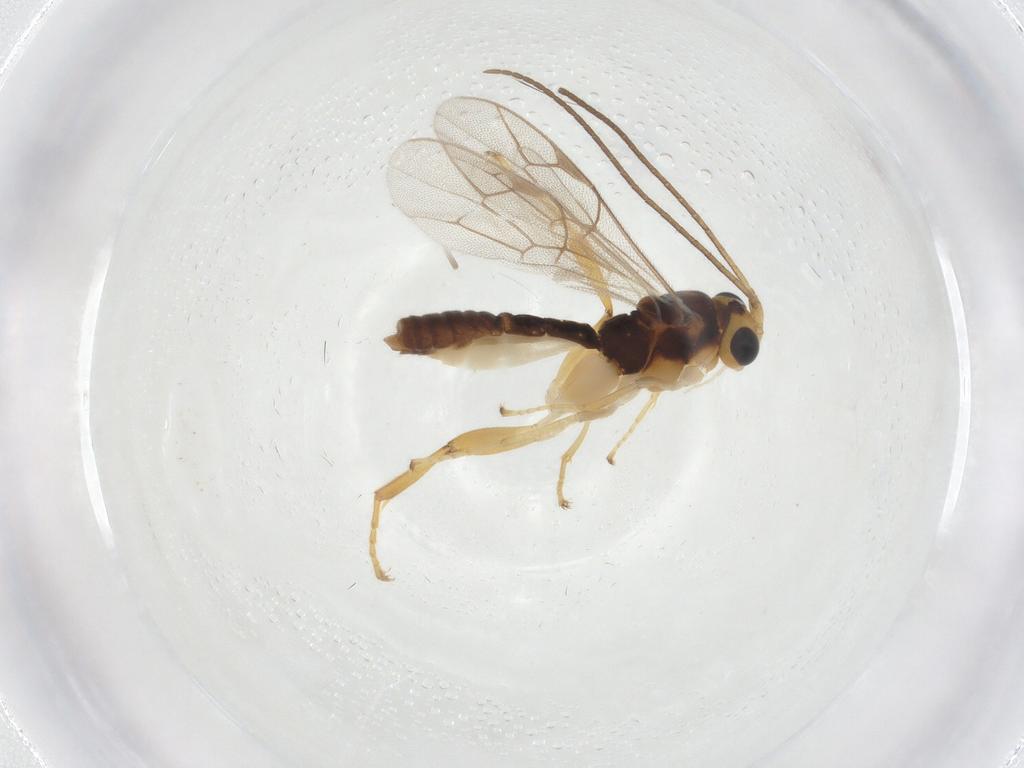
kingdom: Animalia
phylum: Arthropoda
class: Insecta
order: Hymenoptera
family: Ichneumonidae
